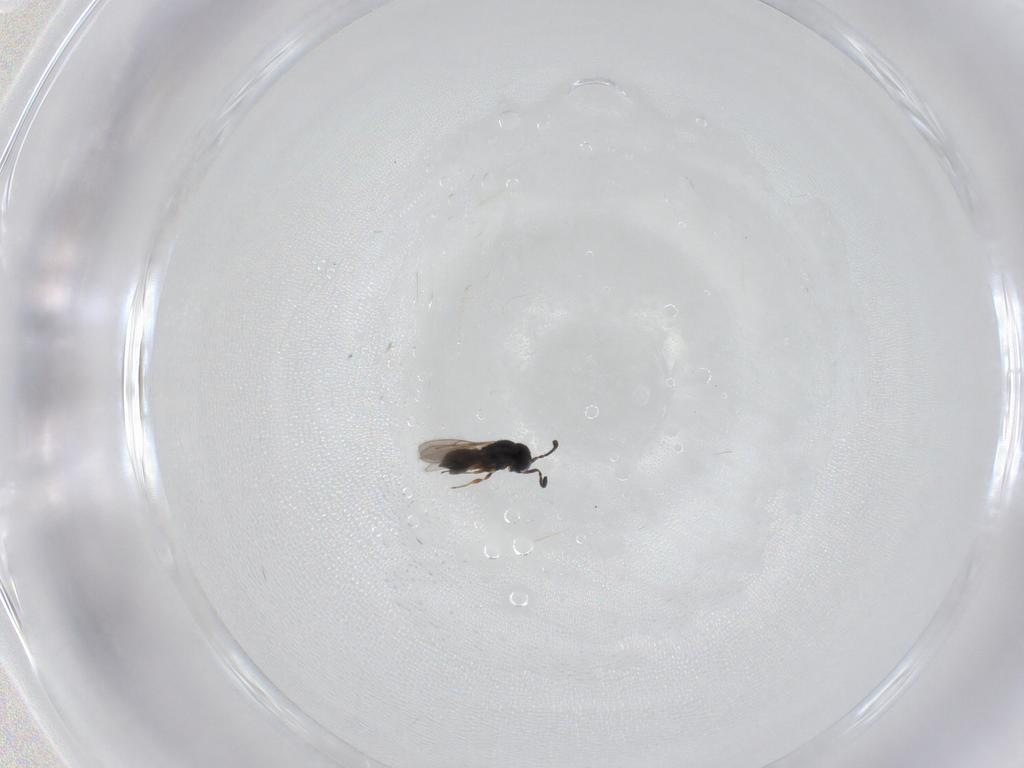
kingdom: Animalia
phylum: Arthropoda
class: Insecta
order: Hymenoptera
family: Scelionidae
